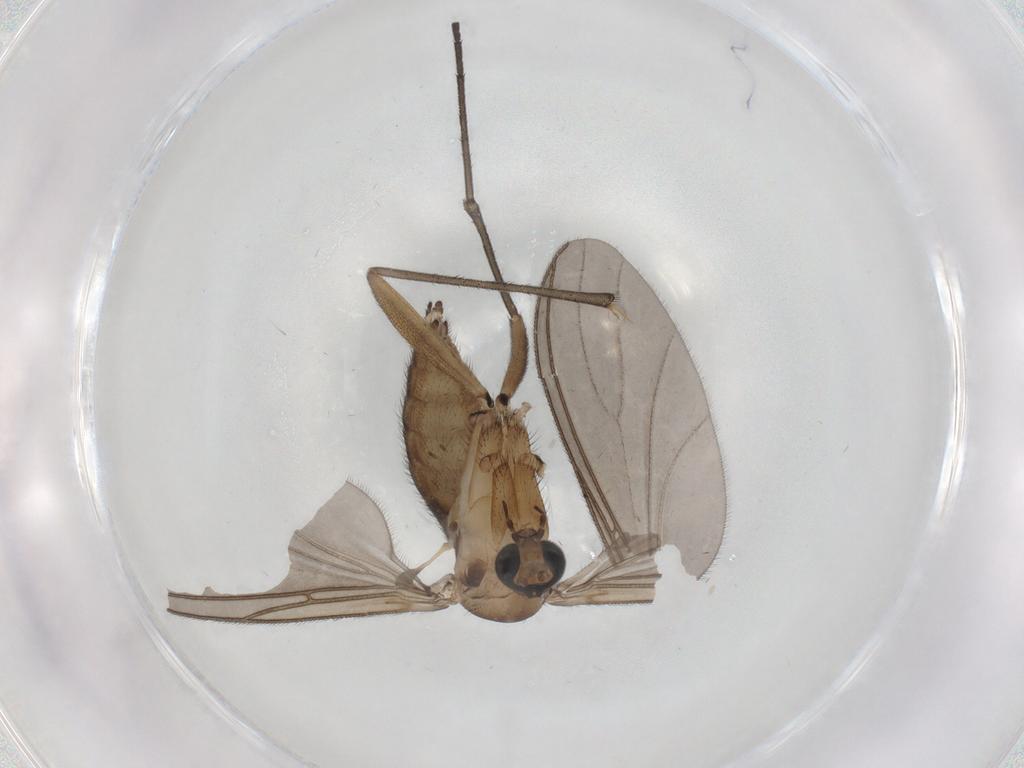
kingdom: Animalia
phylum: Arthropoda
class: Insecta
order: Diptera
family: Sciaridae
